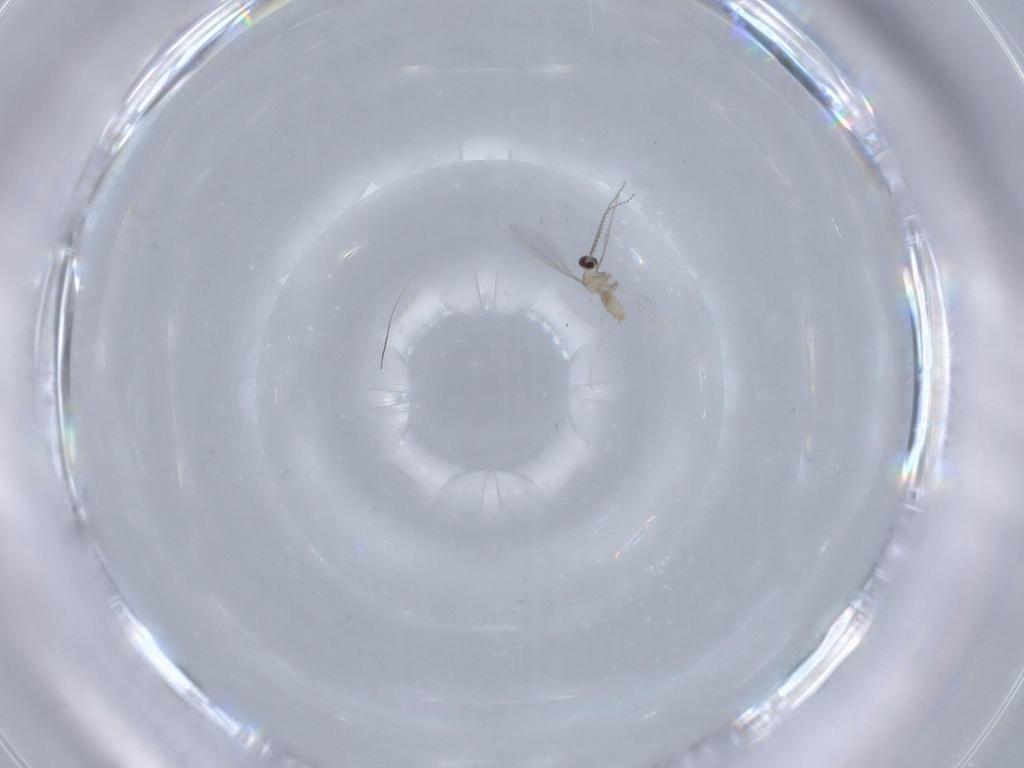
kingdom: Animalia
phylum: Arthropoda
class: Insecta
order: Diptera
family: Cecidomyiidae
